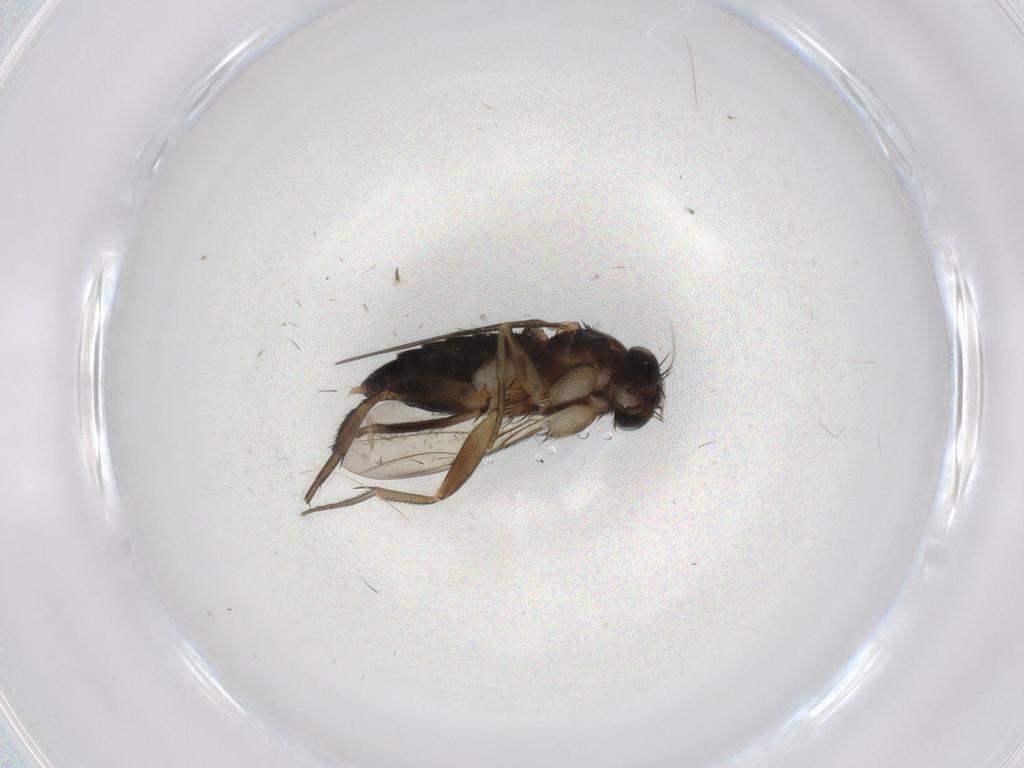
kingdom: Animalia
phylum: Arthropoda
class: Insecta
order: Diptera
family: Phoridae
